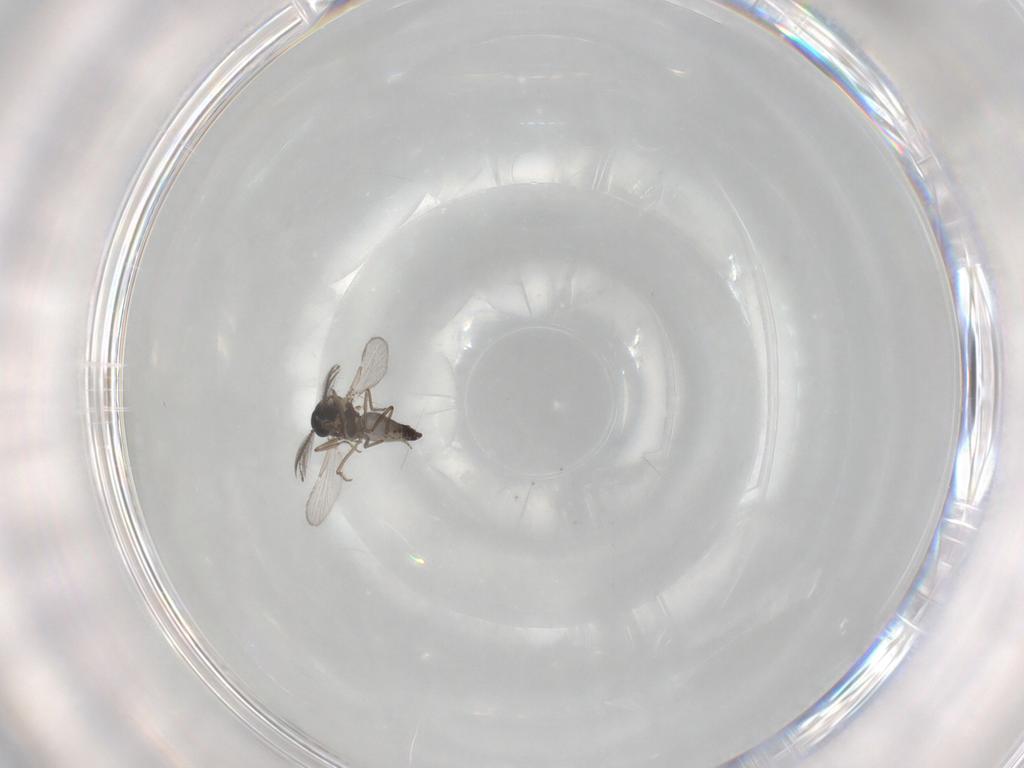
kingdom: Animalia
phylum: Arthropoda
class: Insecta
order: Diptera
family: Ceratopogonidae
